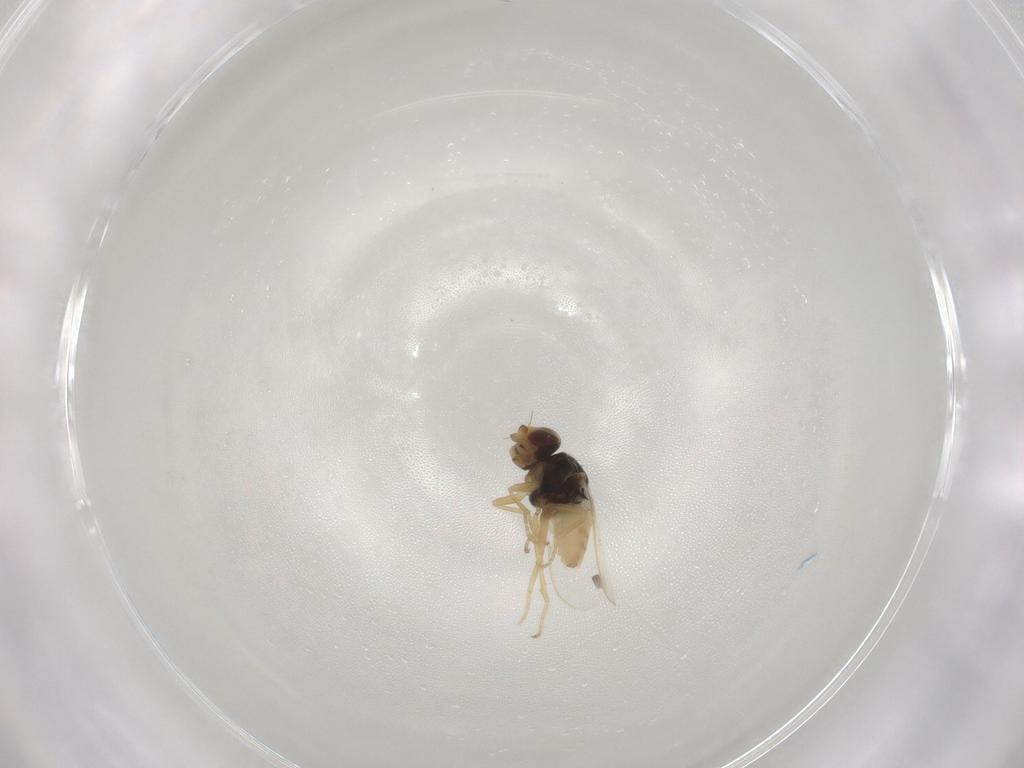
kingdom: Animalia
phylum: Arthropoda
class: Insecta
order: Diptera
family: Chloropidae
